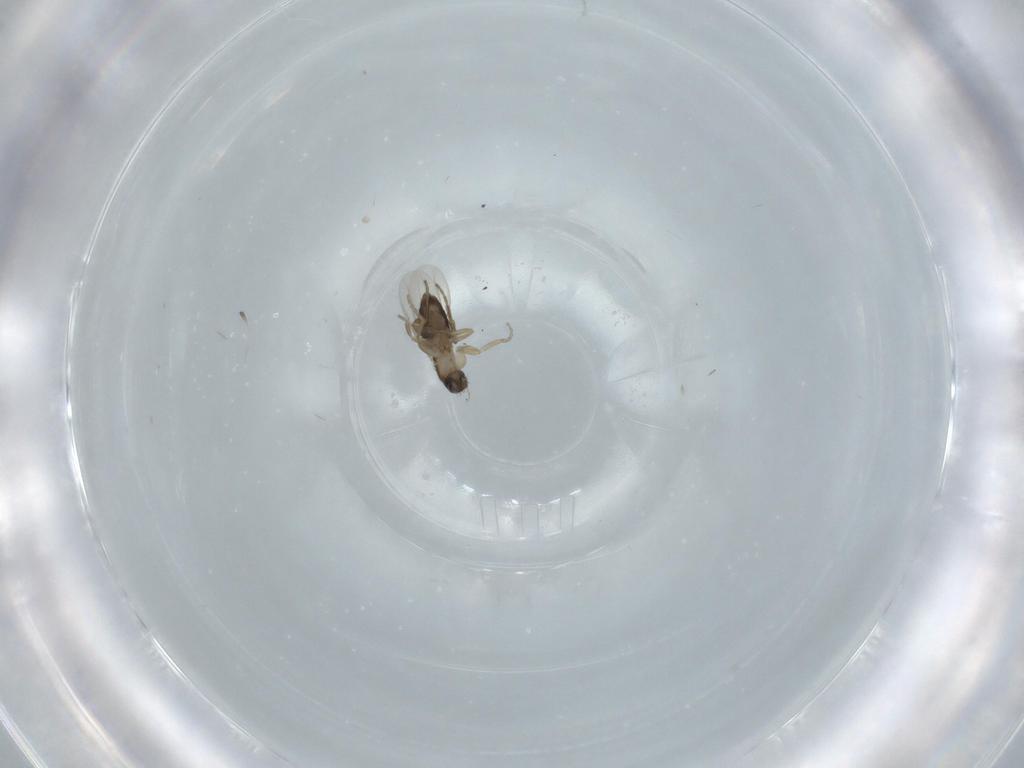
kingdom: Animalia
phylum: Arthropoda
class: Insecta
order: Diptera
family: Phoridae
